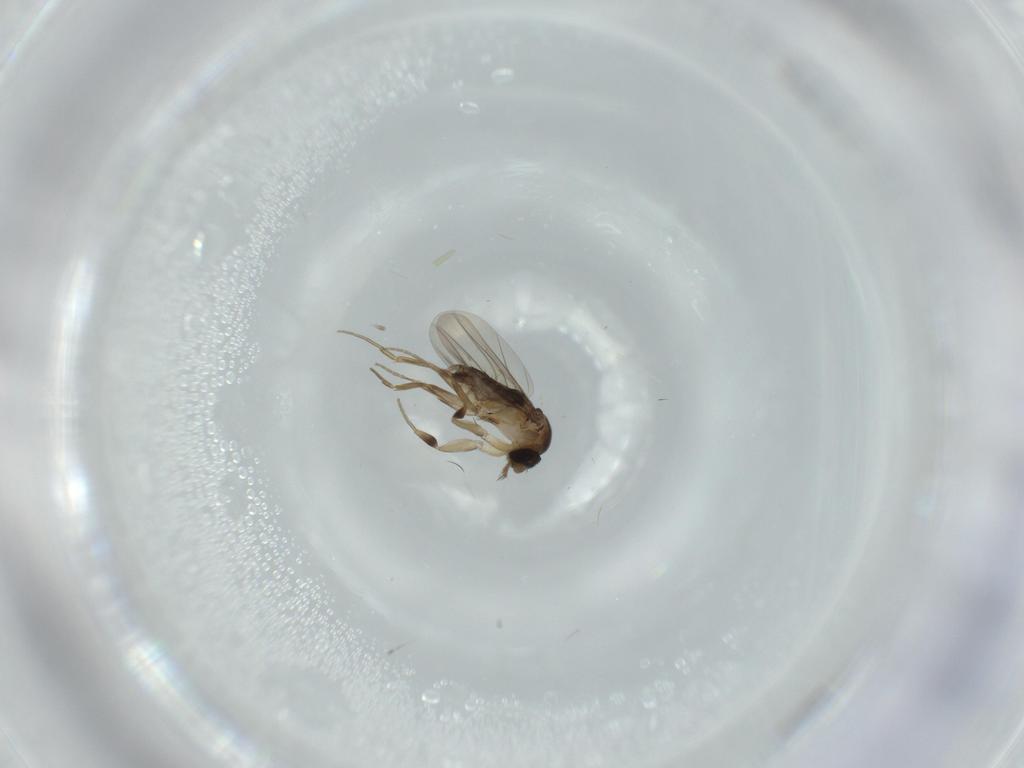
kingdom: Animalia
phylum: Arthropoda
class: Insecta
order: Diptera
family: Phoridae
